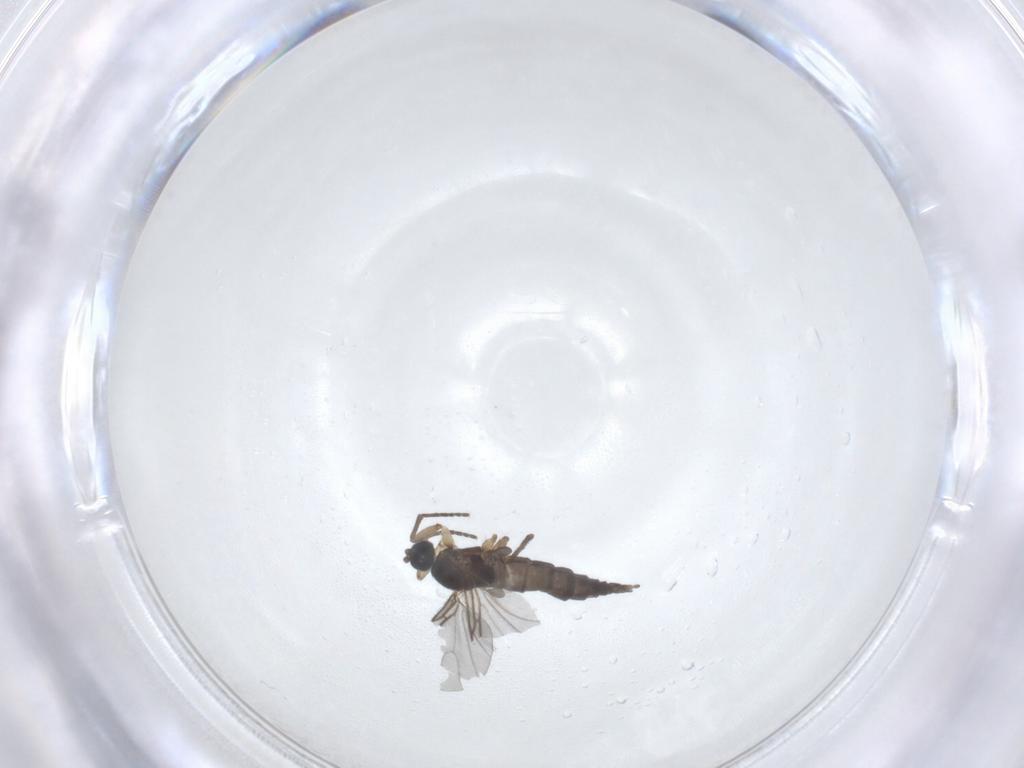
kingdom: Animalia
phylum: Arthropoda
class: Insecta
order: Diptera
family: Sciaridae
